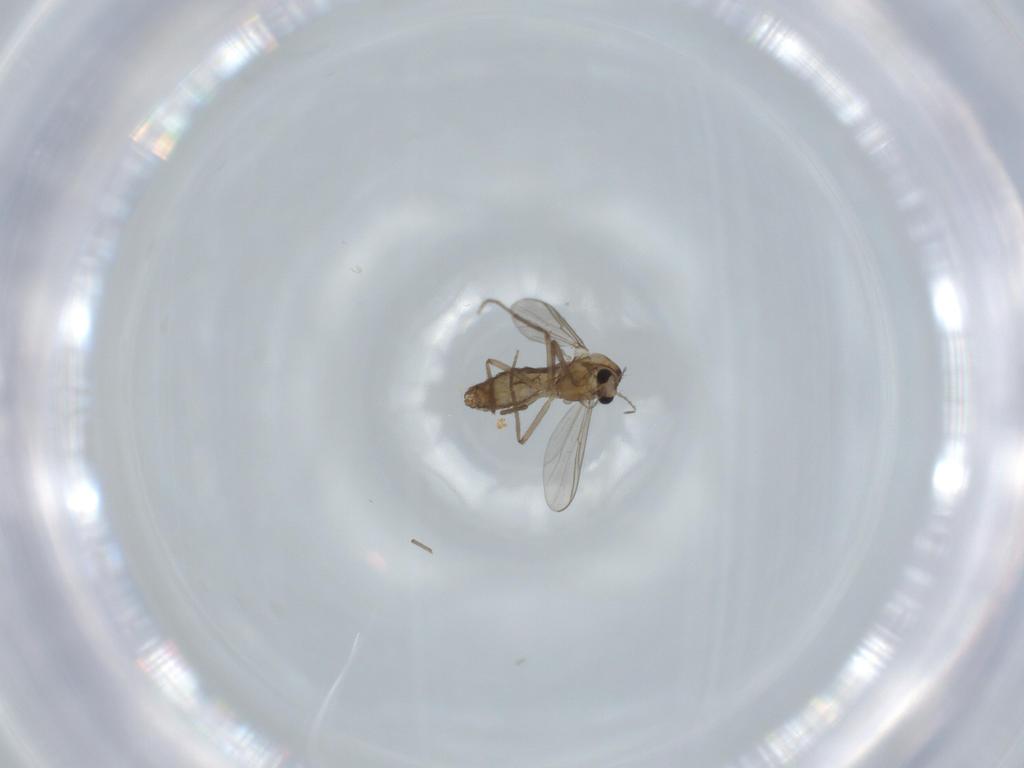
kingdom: Animalia
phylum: Arthropoda
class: Insecta
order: Diptera
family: Chironomidae
